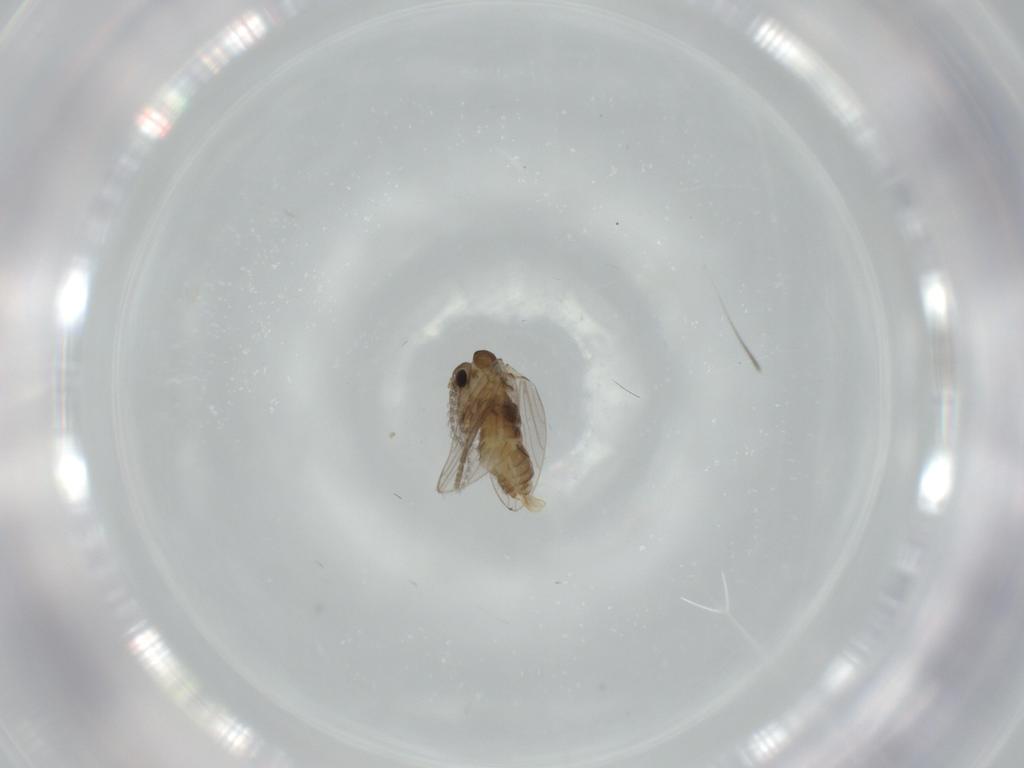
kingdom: Animalia
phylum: Arthropoda
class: Insecta
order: Diptera
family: Psychodidae
